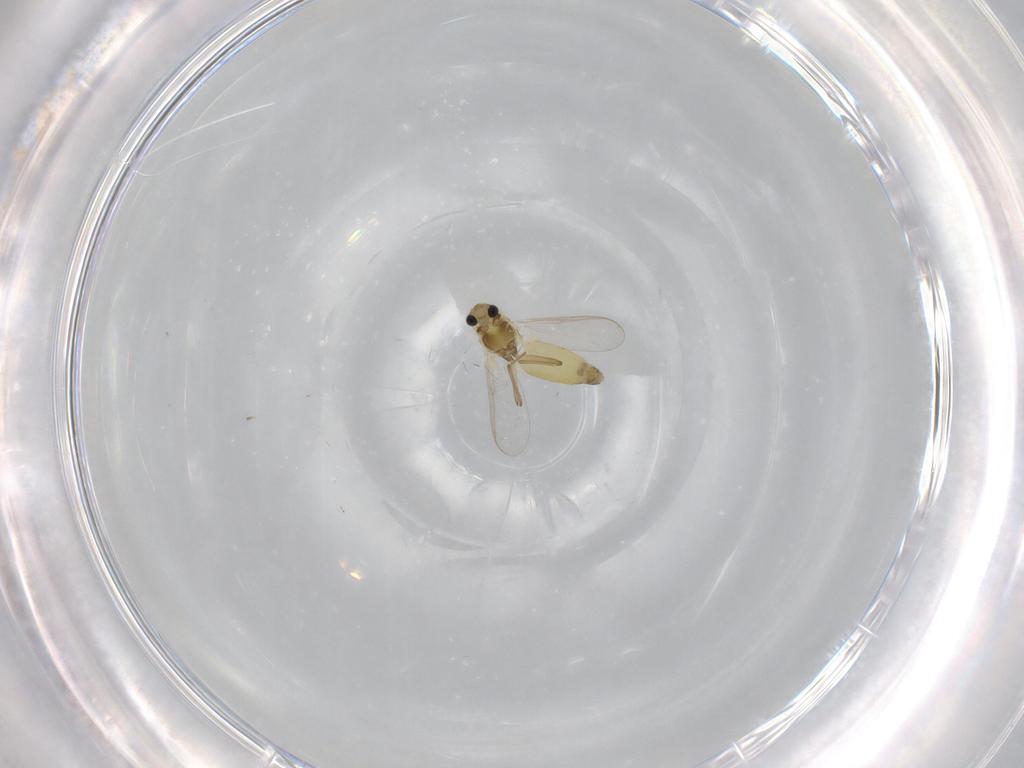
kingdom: Animalia
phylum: Arthropoda
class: Insecta
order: Diptera
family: Chironomidae
